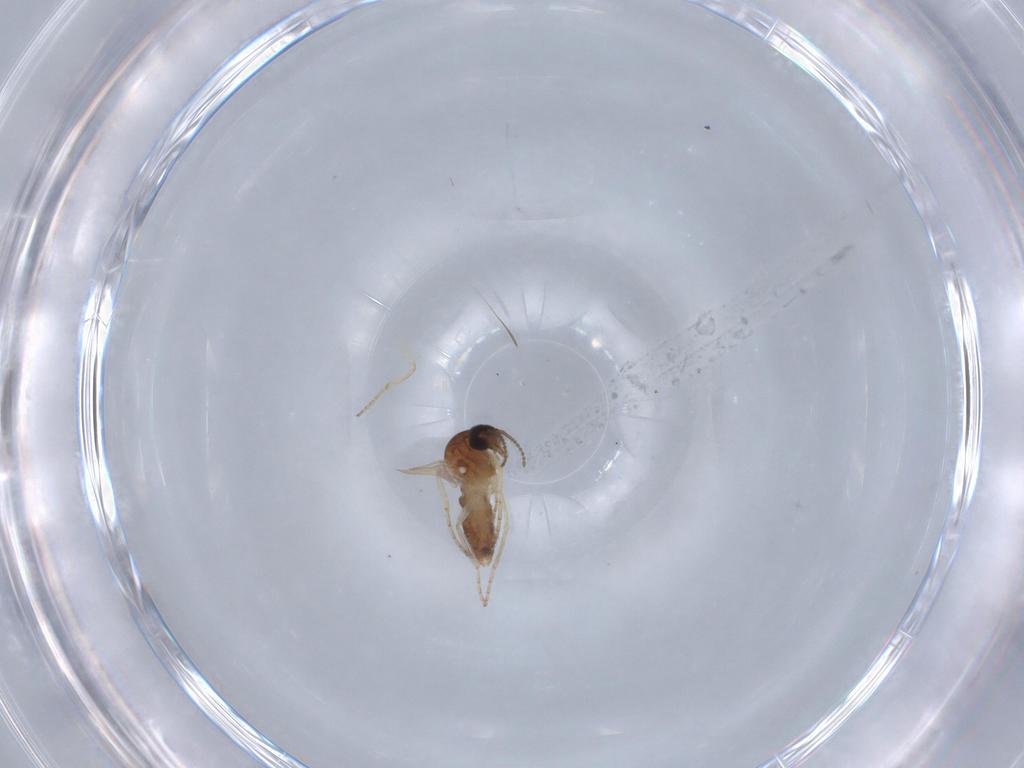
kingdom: Animalia
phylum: Arthropoda
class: Insecta
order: Diptera
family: Ceratopogonidae
